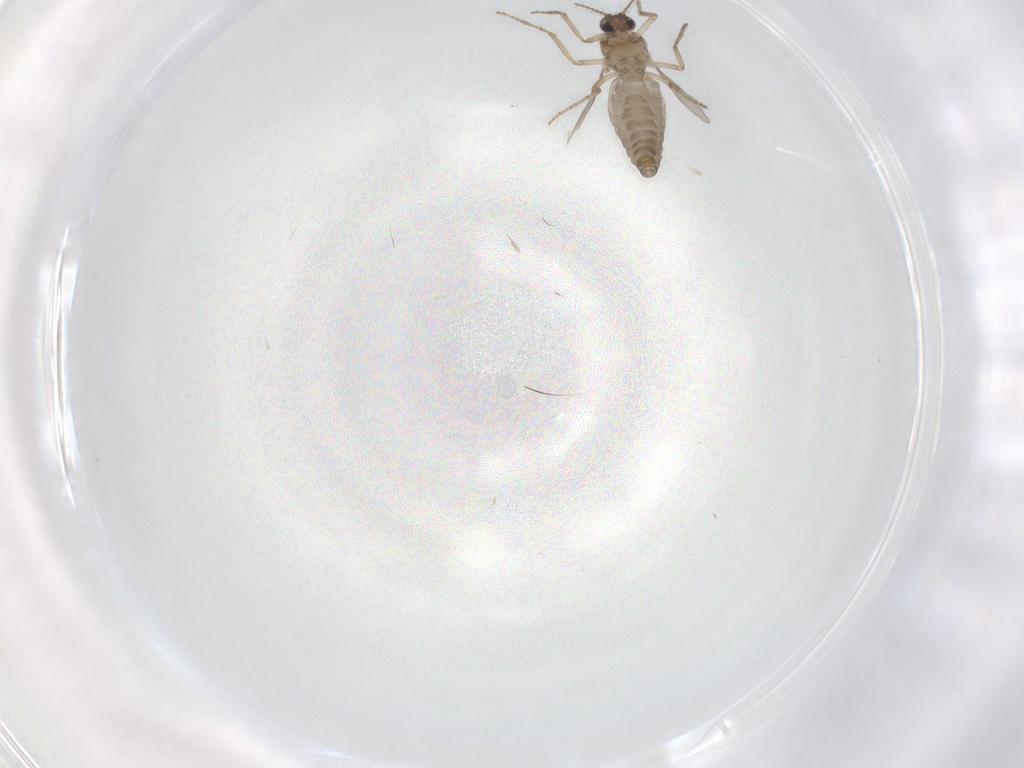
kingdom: Animalia
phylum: Arthropoda
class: Insecta
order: Diptera
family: Ceratopogonidae
